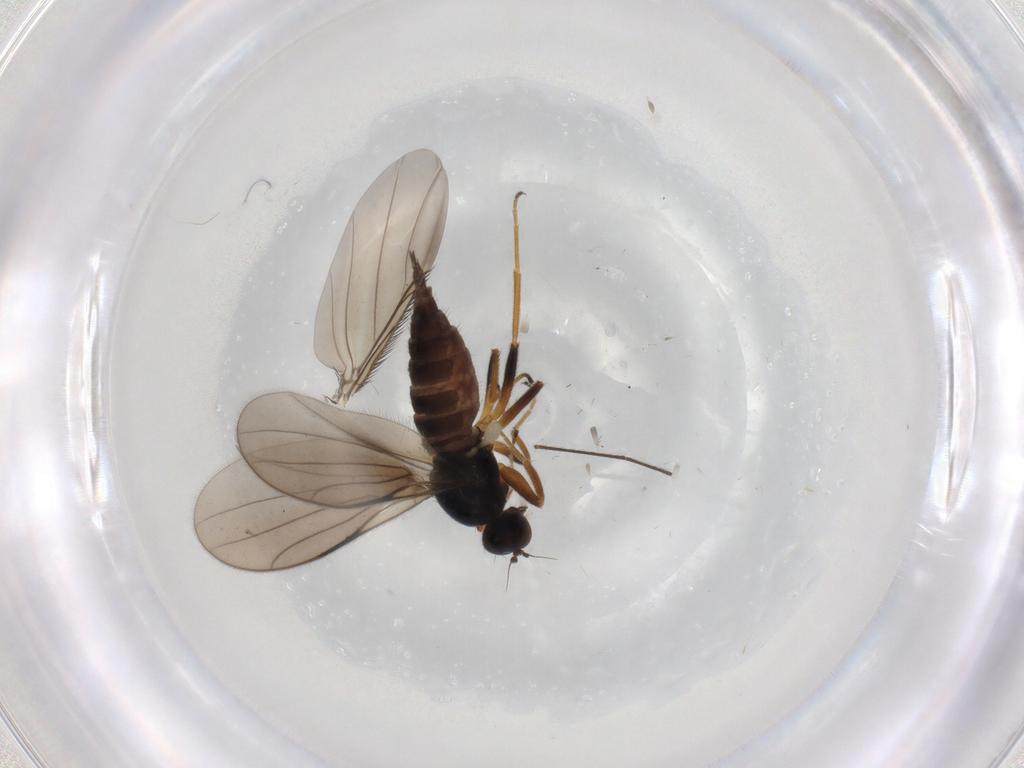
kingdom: Animalia
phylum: Arthropoda
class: Insecta
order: Diptera
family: Hybotidae
